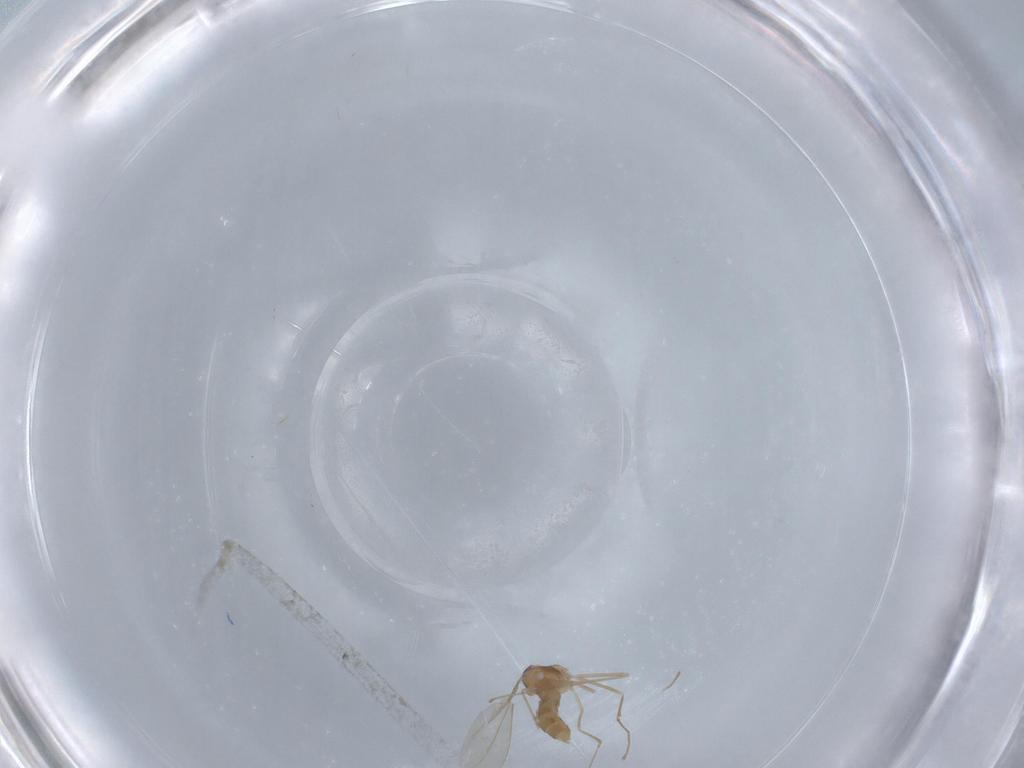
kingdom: Animalia
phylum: Arthropoda
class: Insecta
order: Diptera
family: Cecidomyiidae
